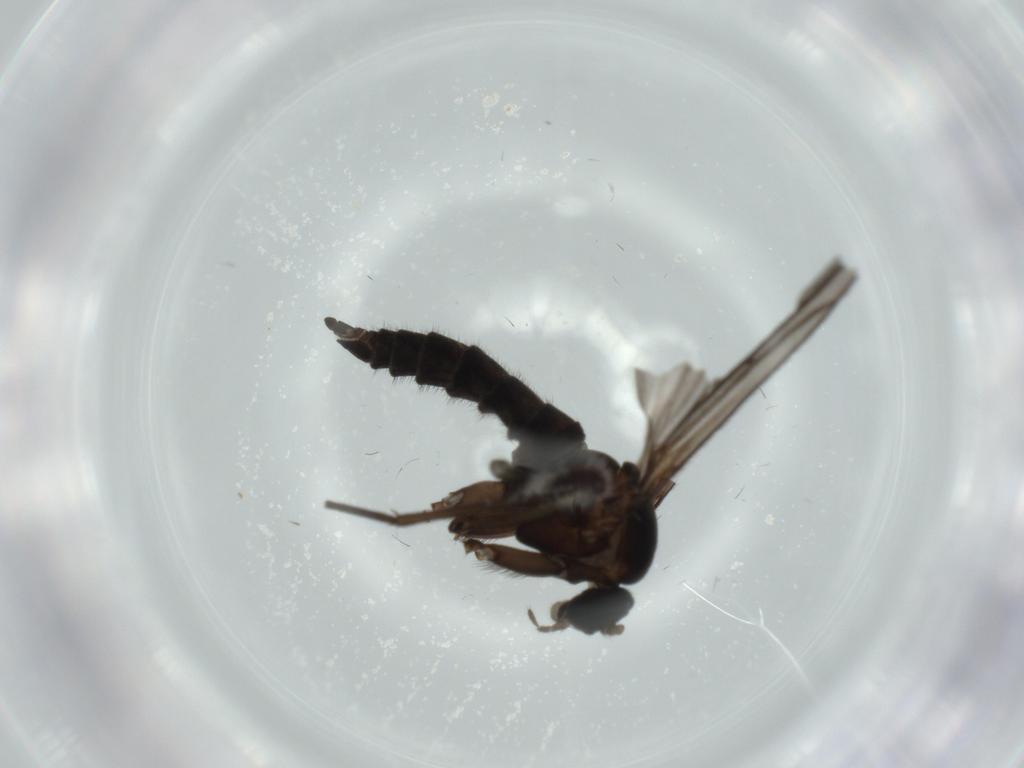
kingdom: Animalia
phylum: Arthropoda
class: Insecta
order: Diptera
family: Sciaridae
